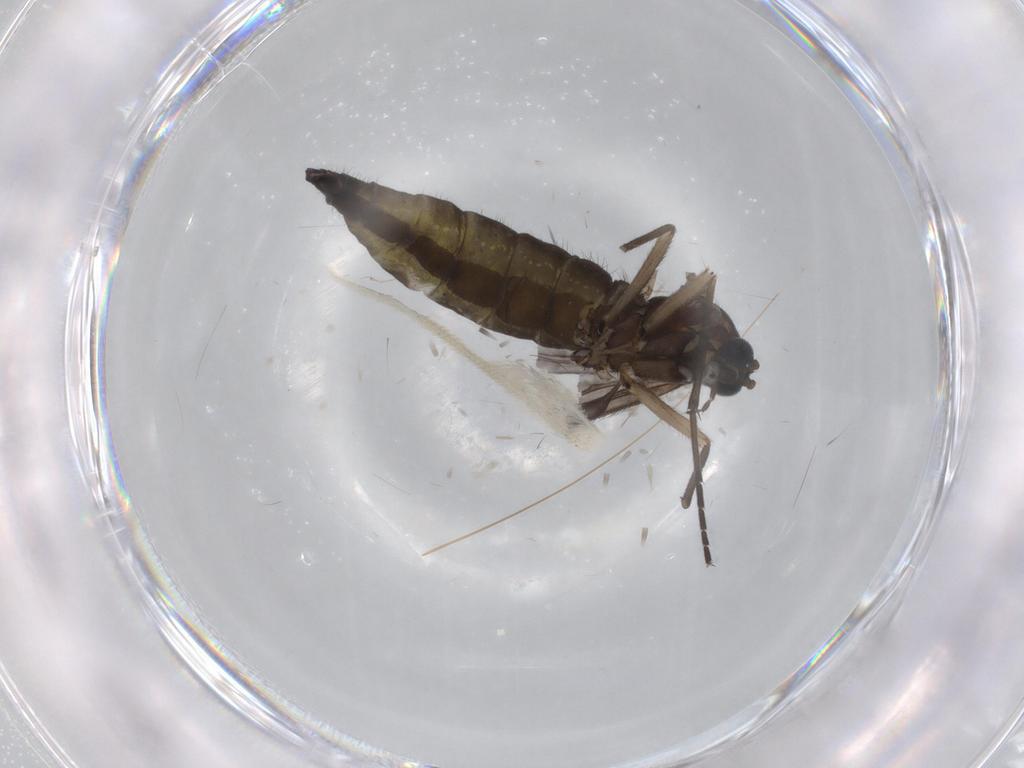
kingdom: Animalia
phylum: Arthropoda
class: Insecta
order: Diptera
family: Sciaridae
